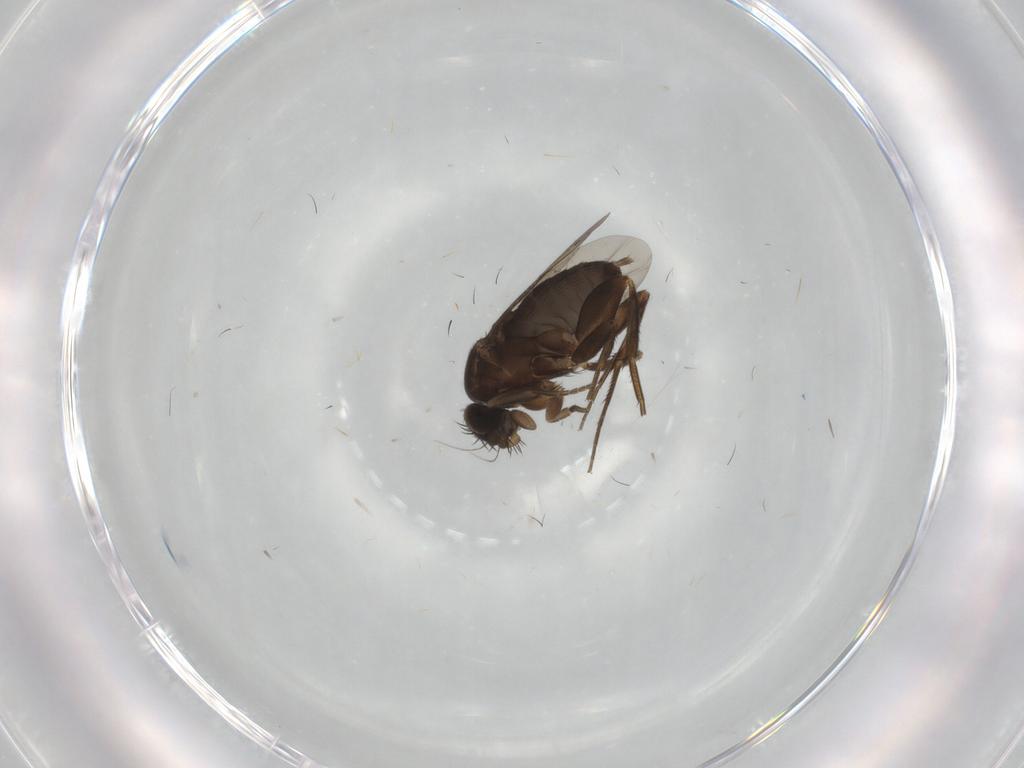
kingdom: Animalia
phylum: Arthropoda
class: Insecta
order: Diptera
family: Phoridae
